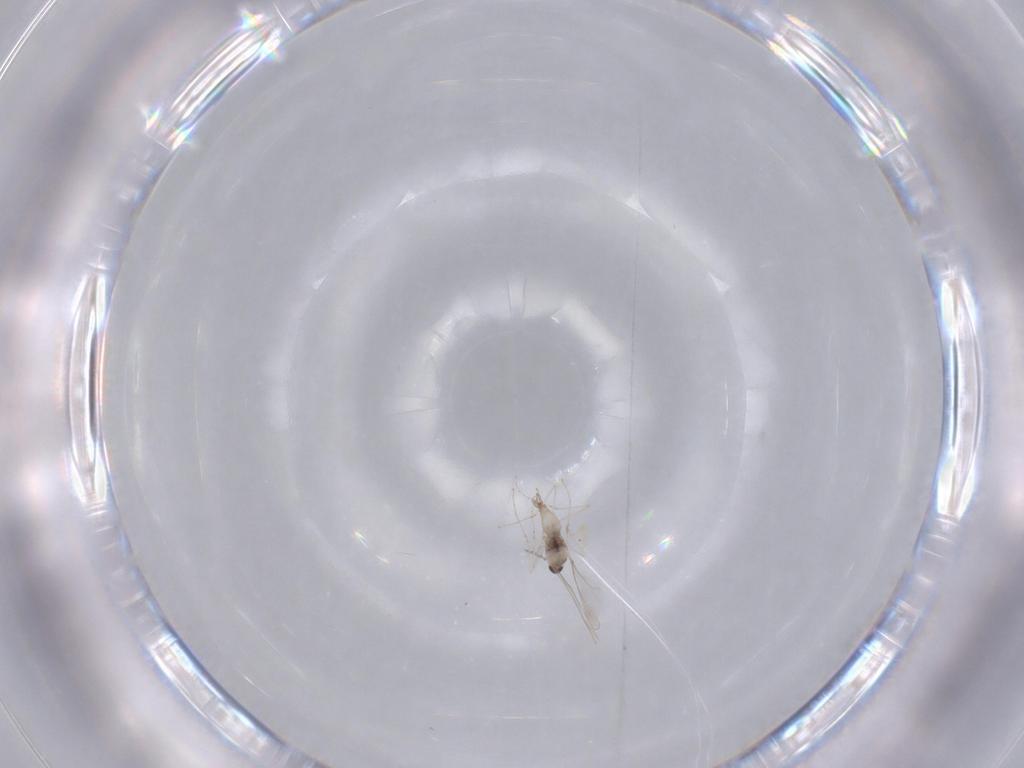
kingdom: Animalia
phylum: Arthropoda
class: Insecta
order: Diptera
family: Cecidomyiidae
